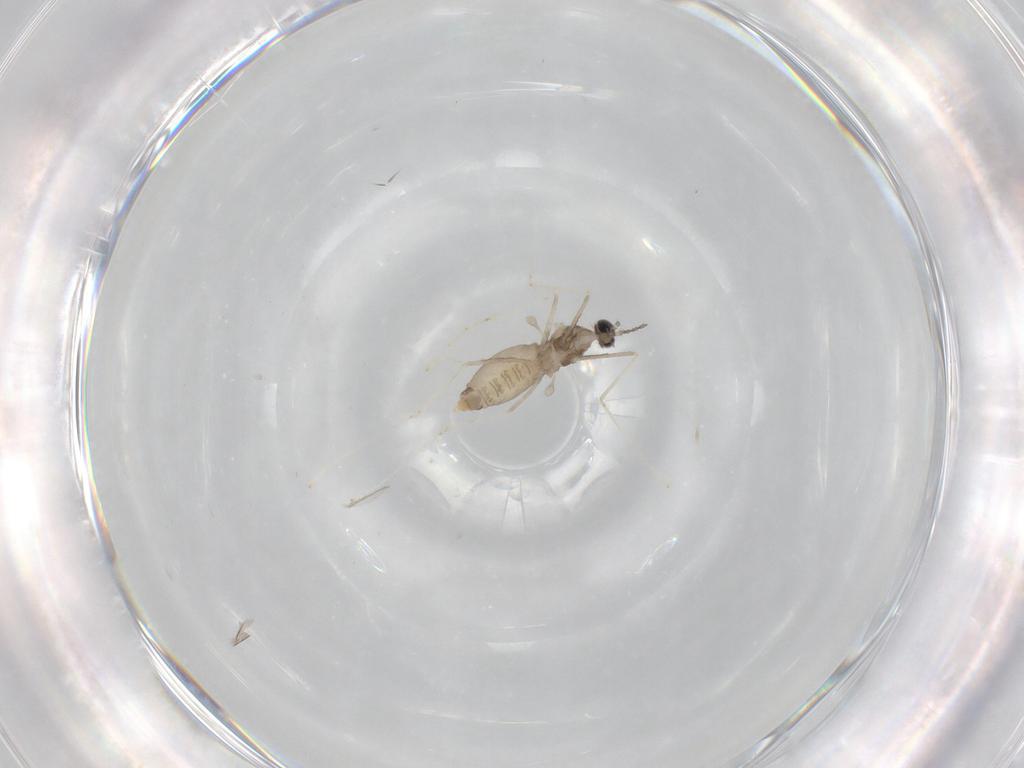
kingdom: Animalia
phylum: Arthropoda
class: Insecta
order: Diptera
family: Cecidomyiidae
